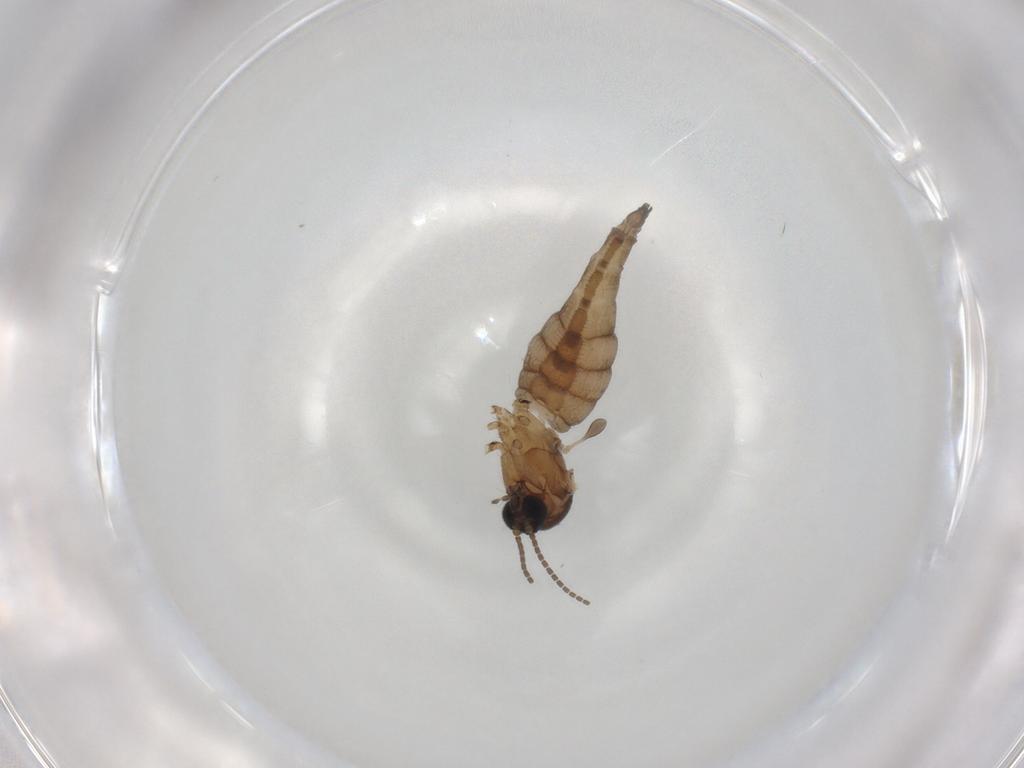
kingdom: Animalia
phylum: Arthropoda
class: Insecta
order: Diptera
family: Sciaridae
